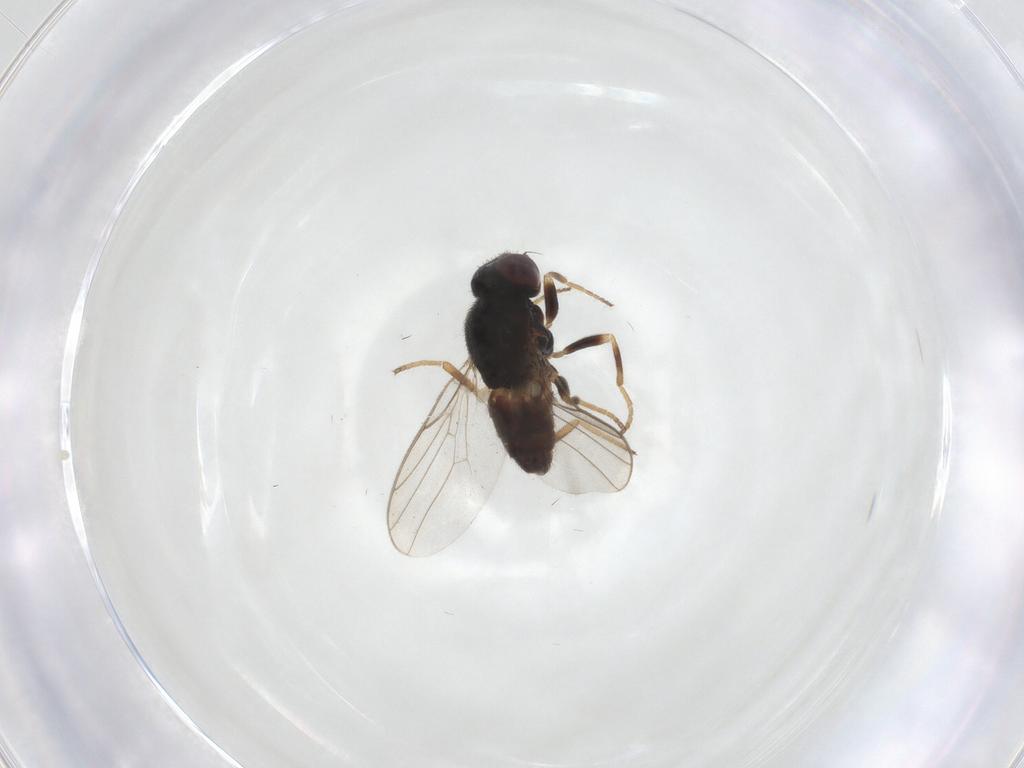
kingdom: Animalia
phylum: Arthropoda
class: Insecta
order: Diptera
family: Chloropidae
